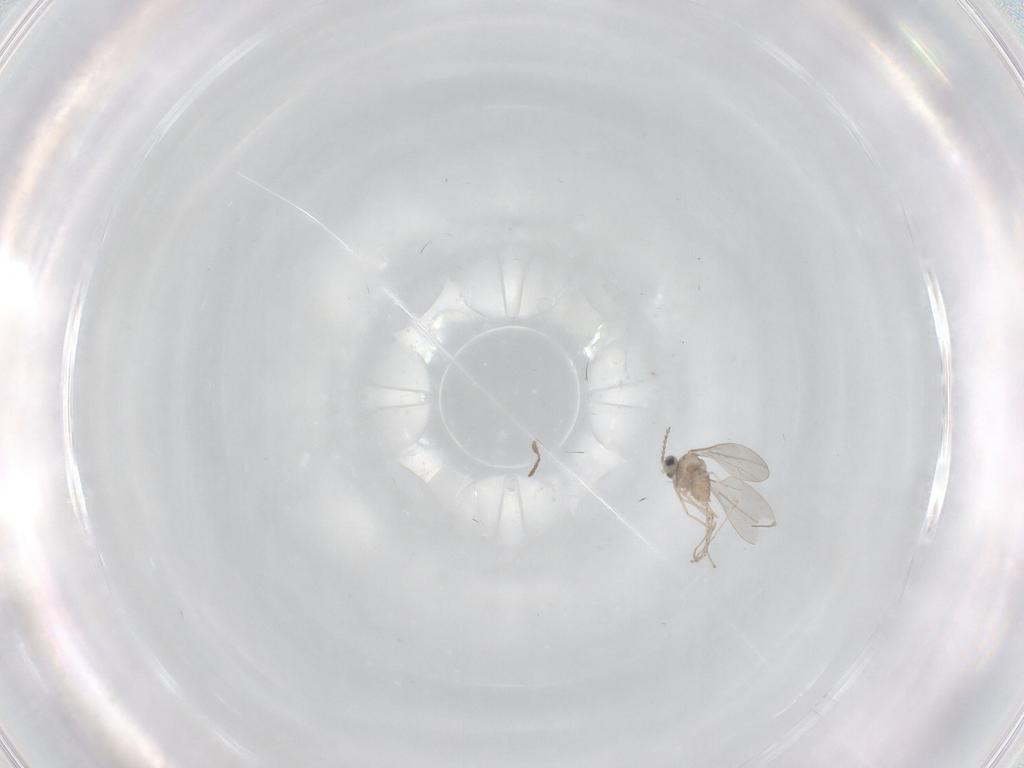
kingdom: Animalia
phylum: Arthropoda
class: Insecta
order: Diptera
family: Cecidomyiidae
